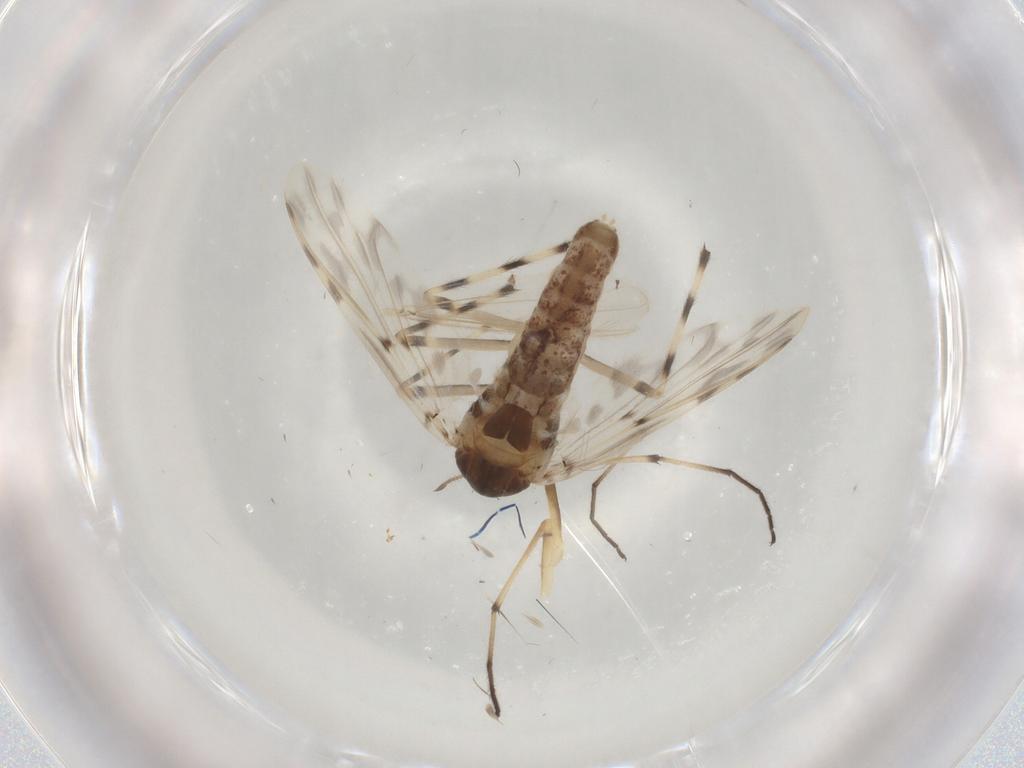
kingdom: Animalia
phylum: Arthropoda
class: Insecta
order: Diptera
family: Chironomidae
